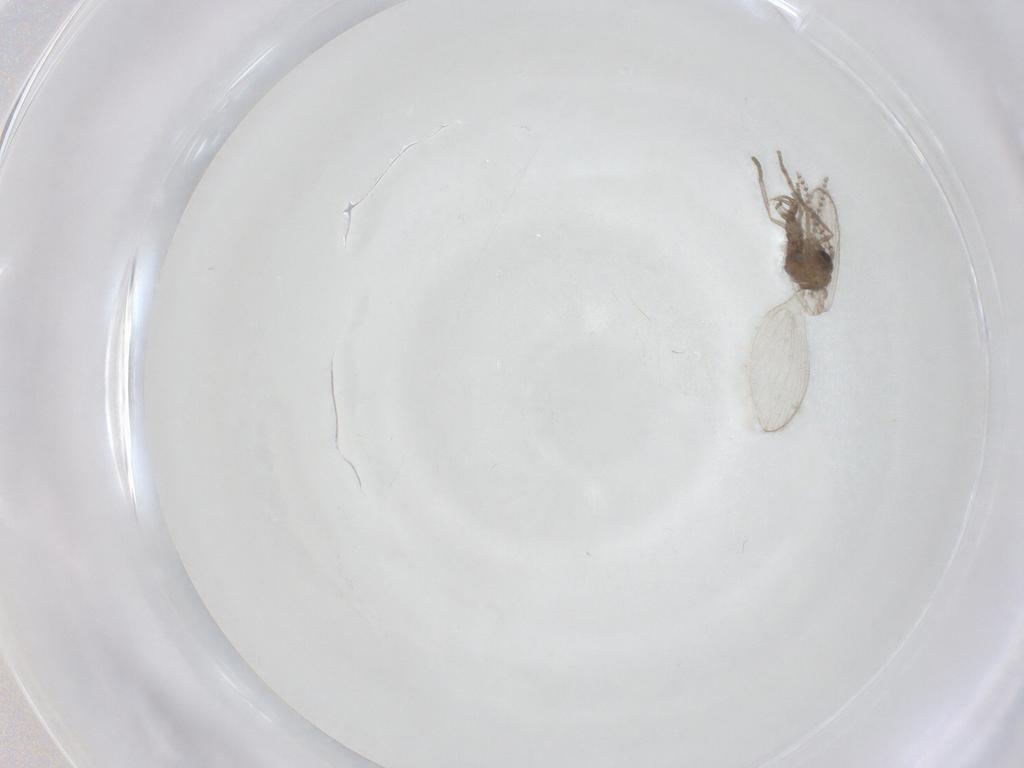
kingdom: Animalia
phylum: Arthropoda
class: Insecta
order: Diptera
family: Psychodidae
